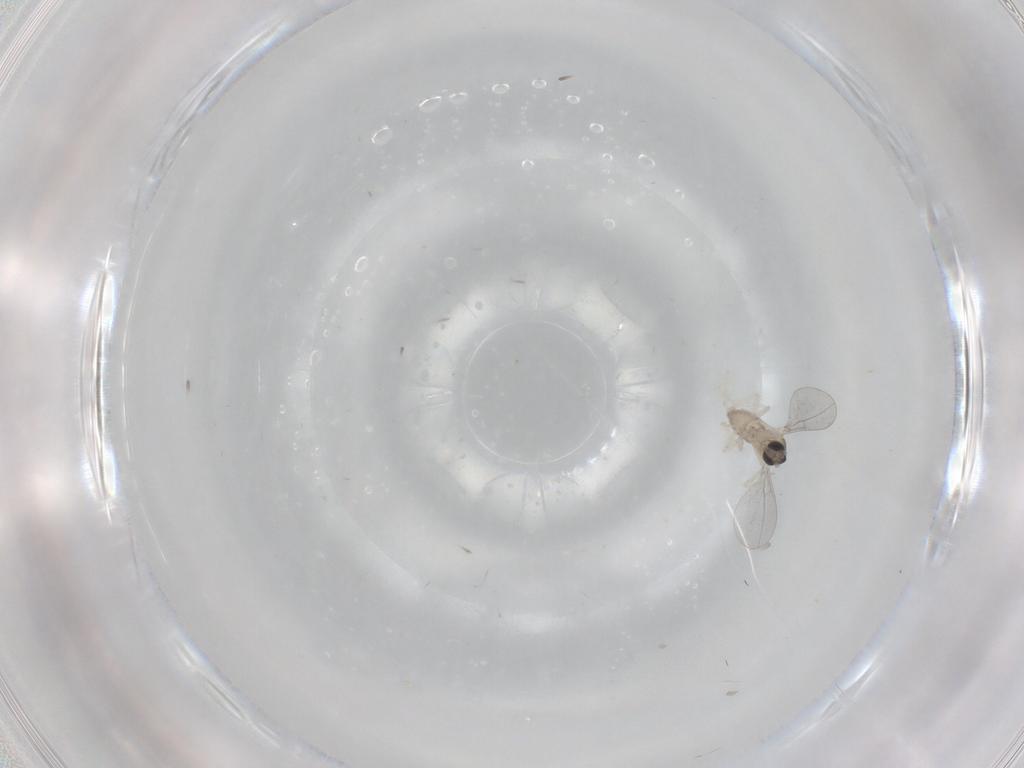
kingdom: Animalia
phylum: Arthropoda
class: Insecta
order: Diptera
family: Cecidomyiidae
